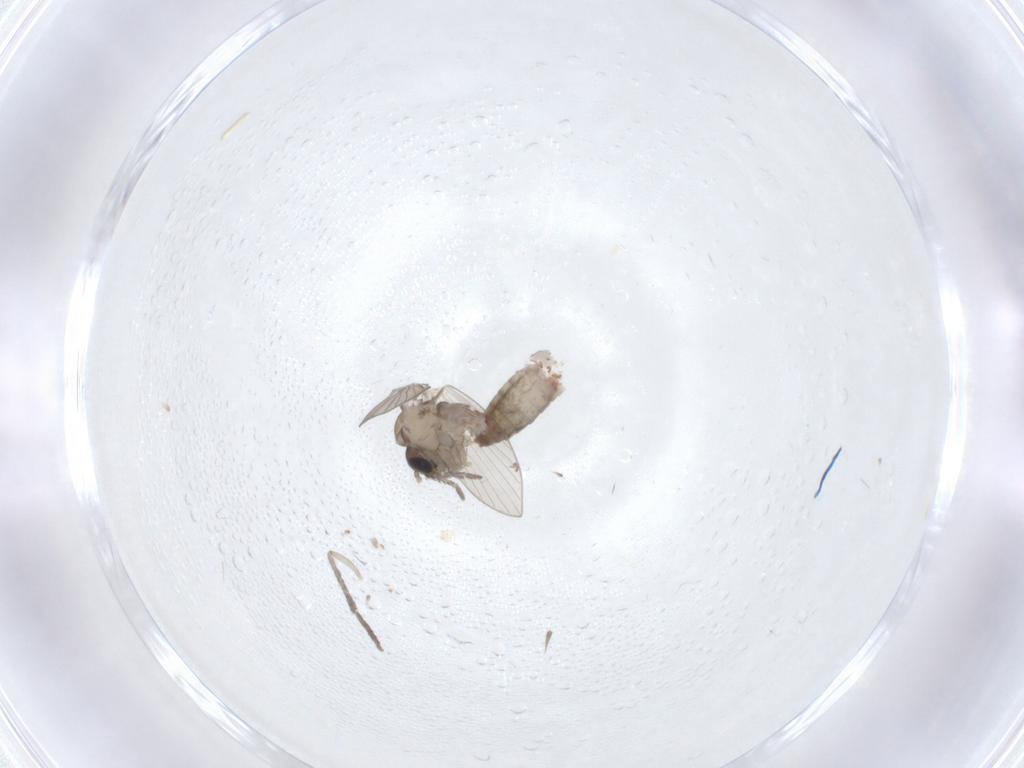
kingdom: Animalia
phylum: Arthropoda
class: Insecta
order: Diptera
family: Psychodidae
